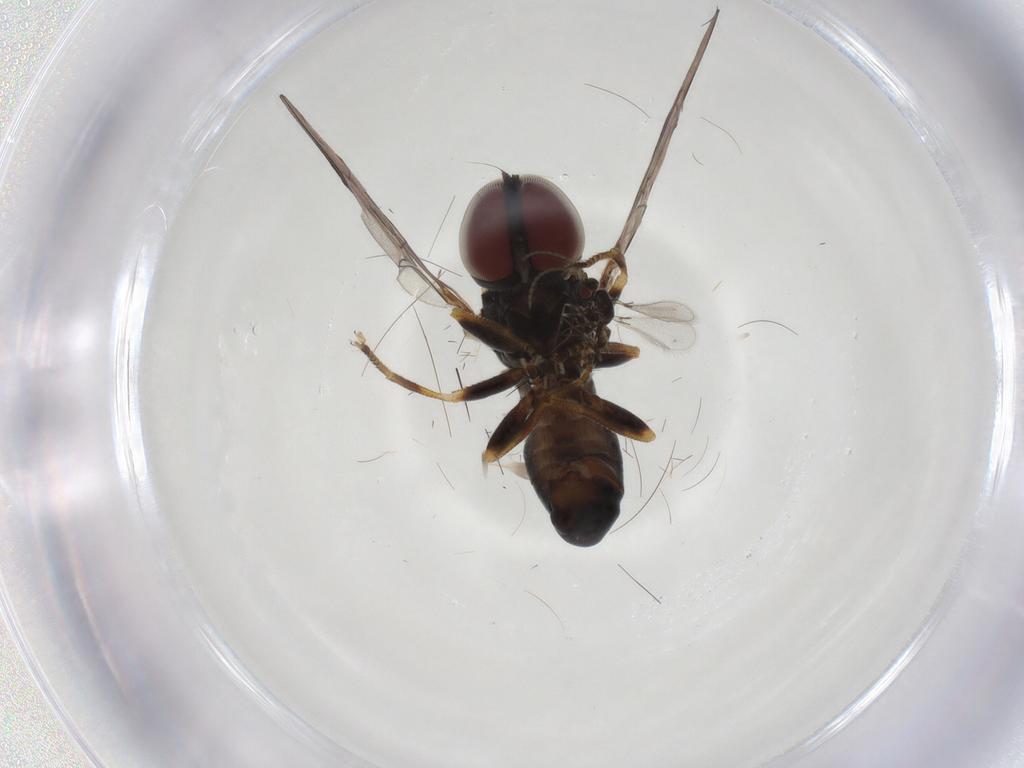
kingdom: Animalia
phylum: Arthropoda
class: Insecta
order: Diptera
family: Pipunculidae
